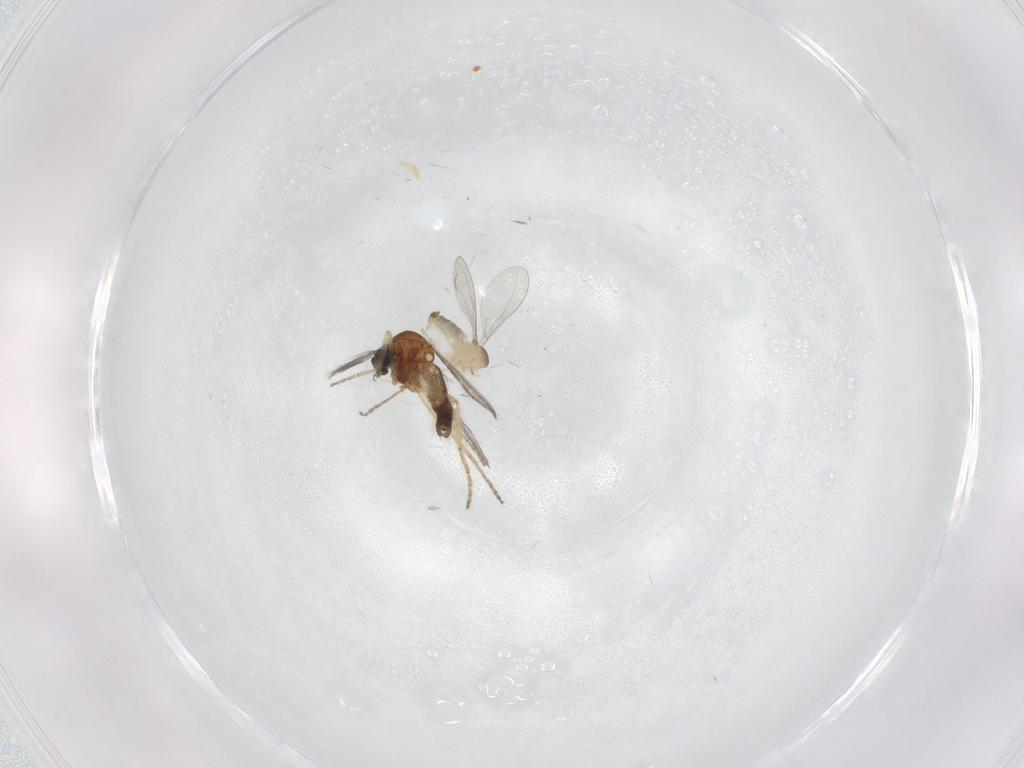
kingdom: Animalia
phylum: Arthropoda
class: Insecta
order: Diptera
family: Ceratopogonidae
